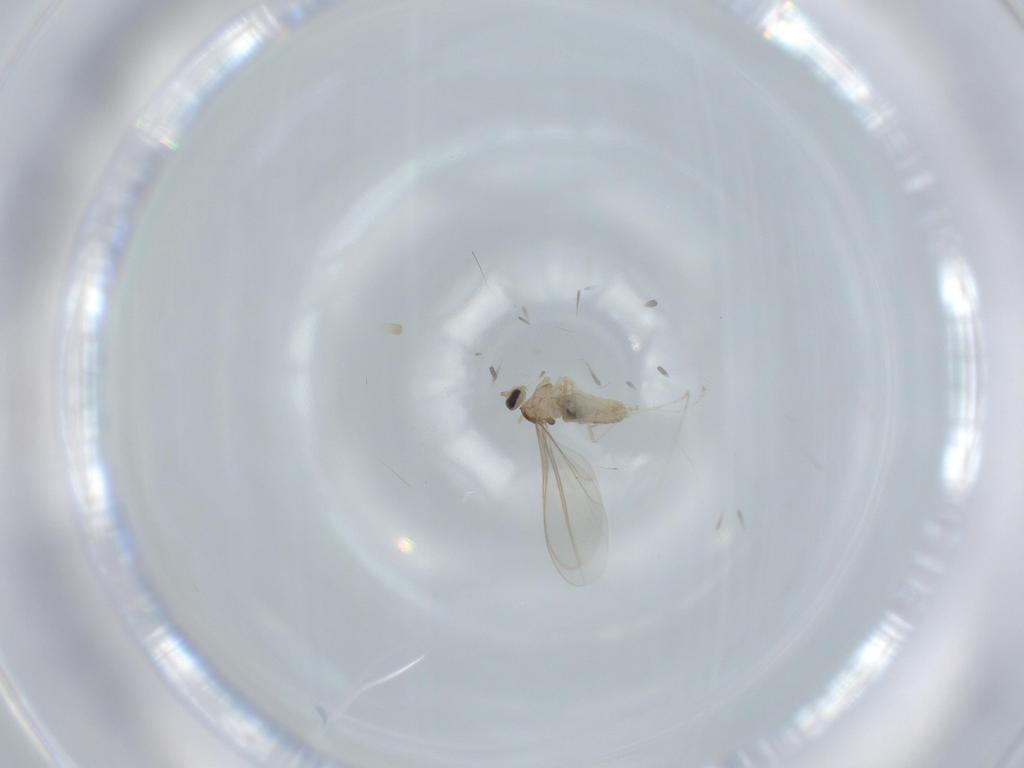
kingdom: Animalia
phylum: Arthropoda
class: Insecta
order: Diptera
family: Cecidomyiidae
